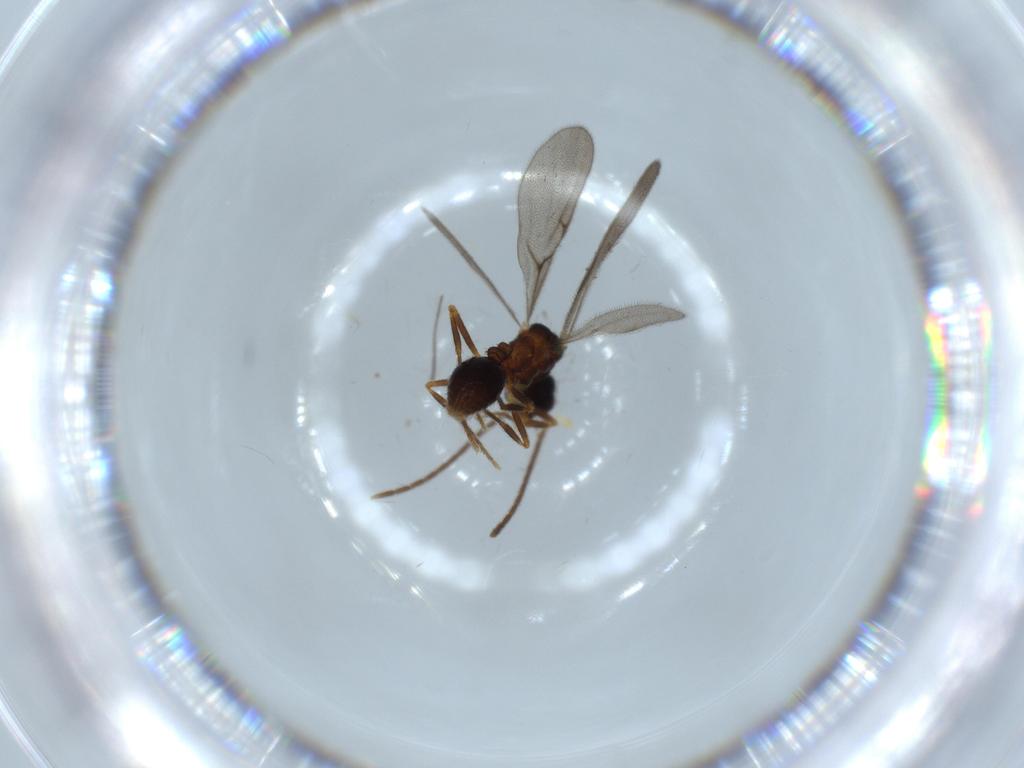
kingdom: Animalia
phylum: Arthropoda
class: Insecta
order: Hymenoptera
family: Formicidae
